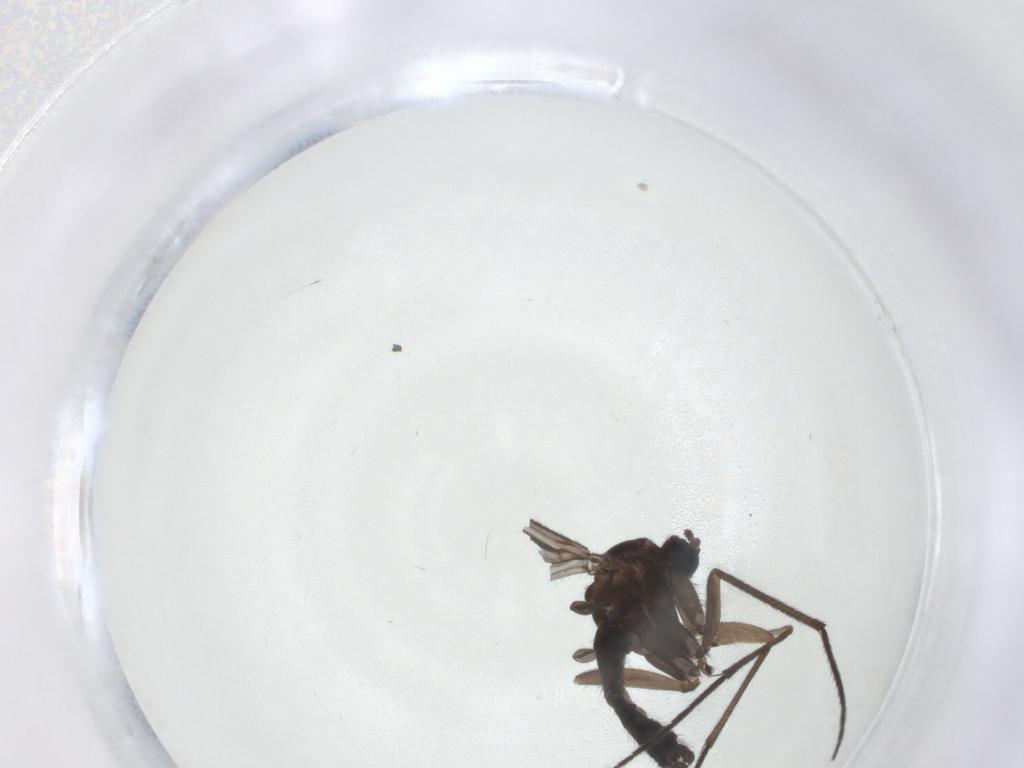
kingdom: Animalia
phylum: Arthropoda
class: Insecta
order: Diptera
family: Sciaridae
